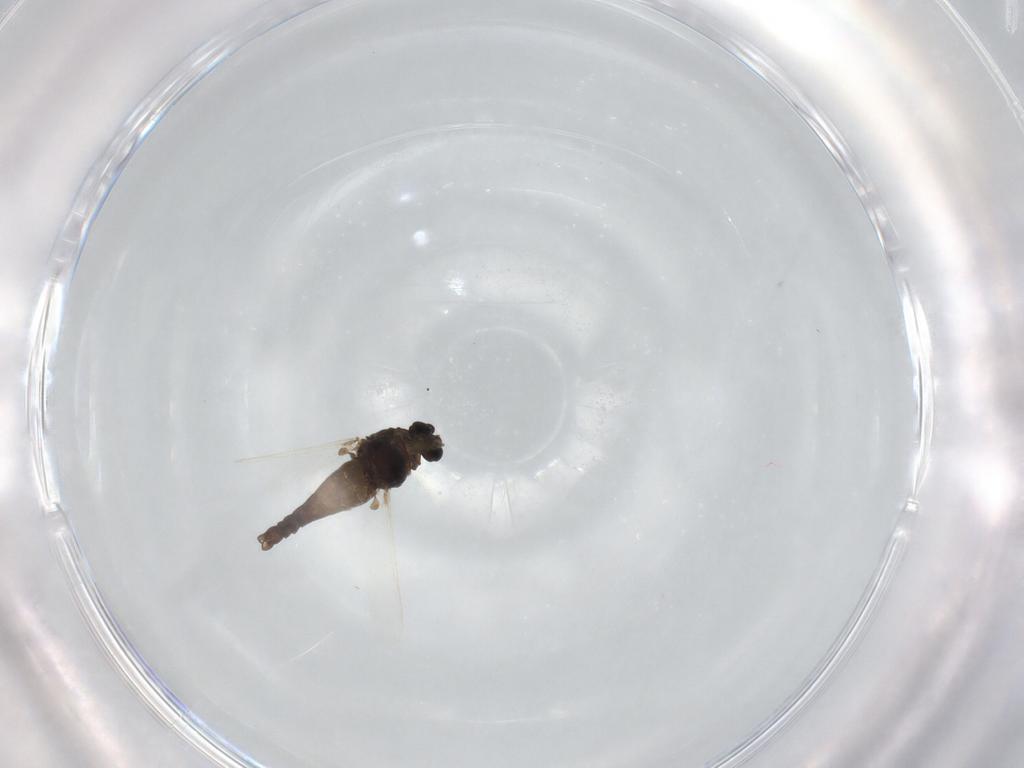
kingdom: Animalia
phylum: Arthropoda
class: Insecta
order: Diptera
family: Chironomidae
